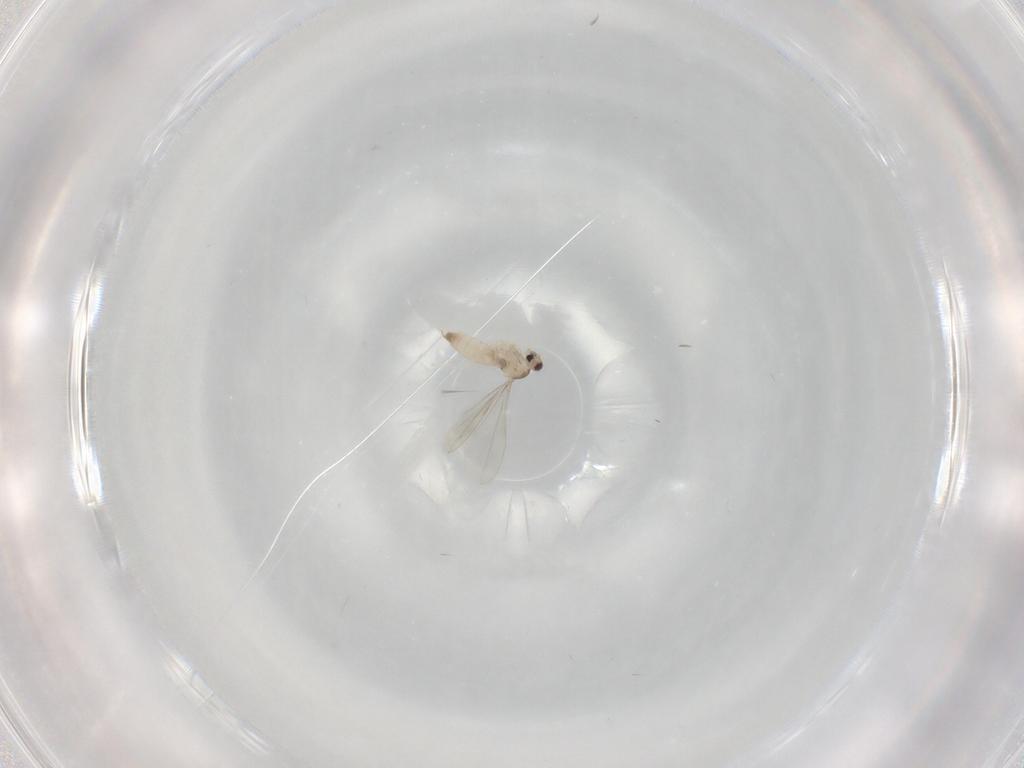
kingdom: Animalia
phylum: Arthropoda
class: Insecta
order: Diptera
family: Cecidomyiidae
